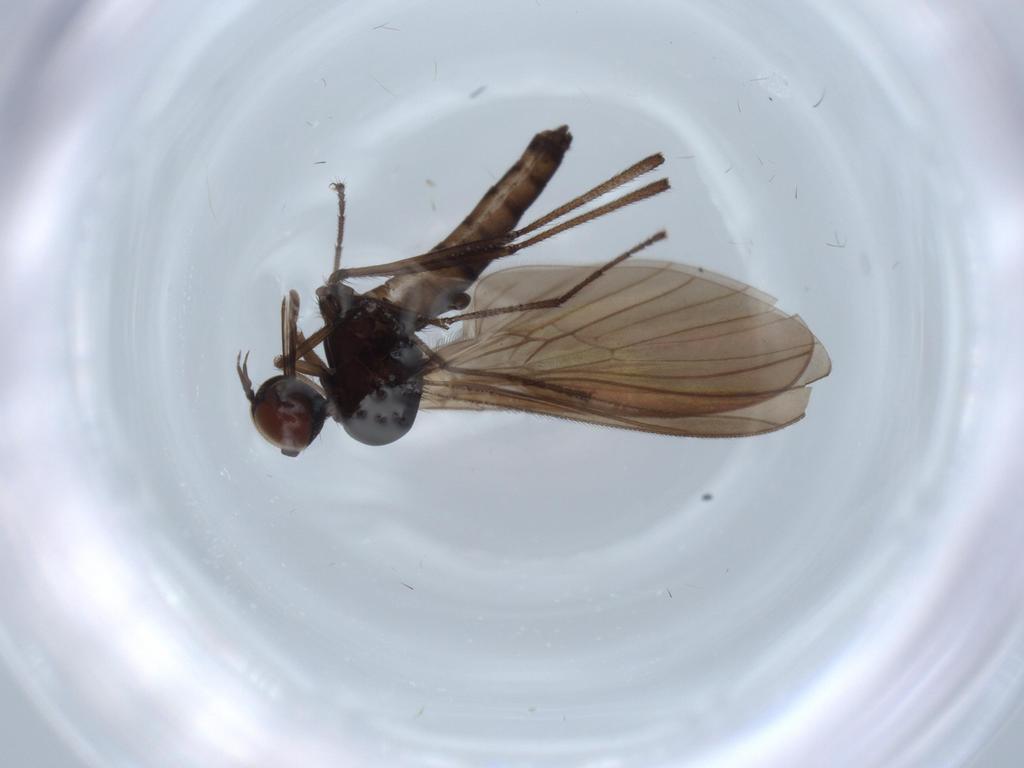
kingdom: Animalia
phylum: Arthropoda
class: Insecta
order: Diptera
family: Empididae
